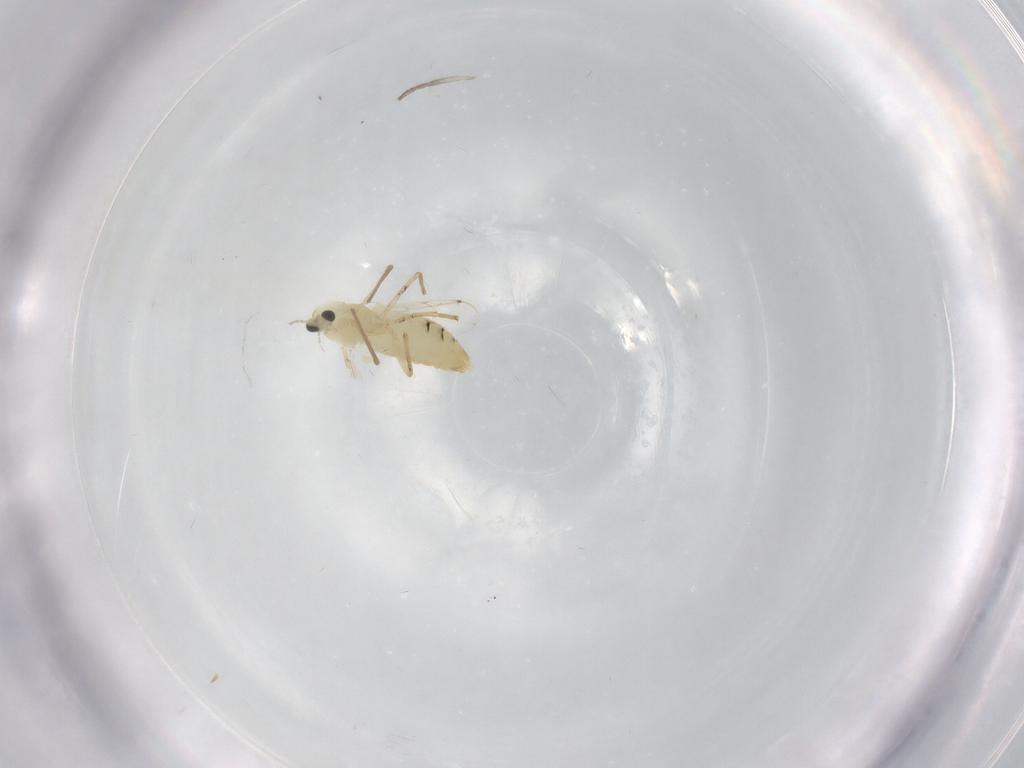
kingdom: Animalia
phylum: Arthropoda
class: Insecta
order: Diptera
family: Chironomidae
